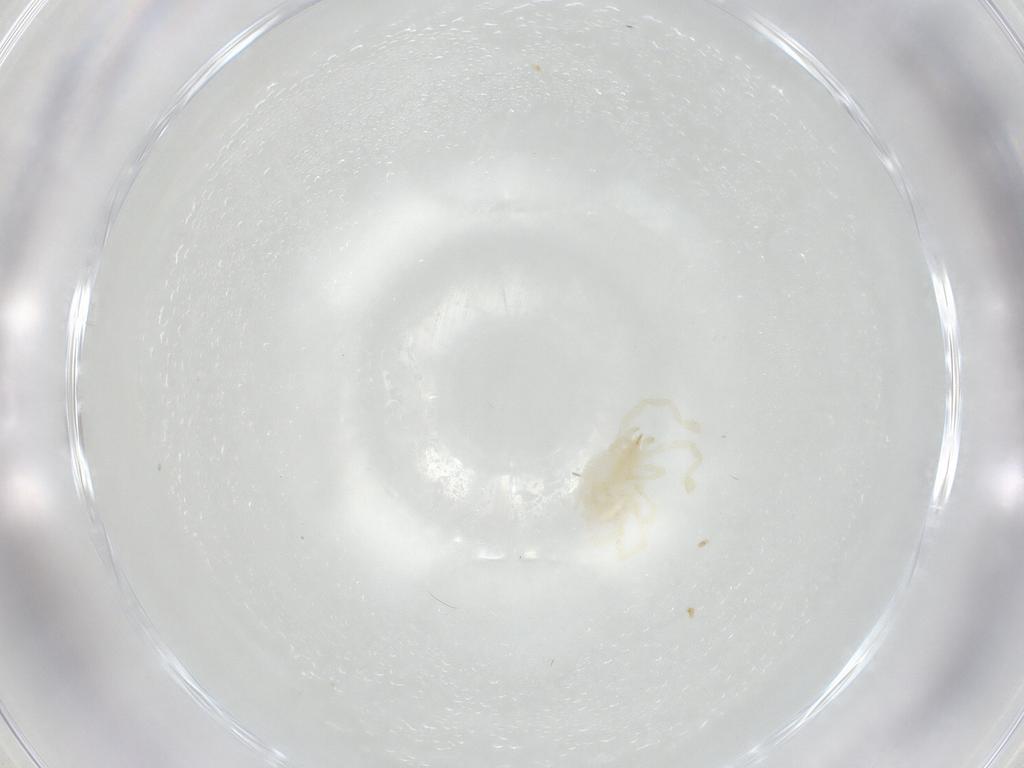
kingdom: Animalia
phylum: Arthropoda
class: Arachnida
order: Trombidiformes
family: Erythraeidae
